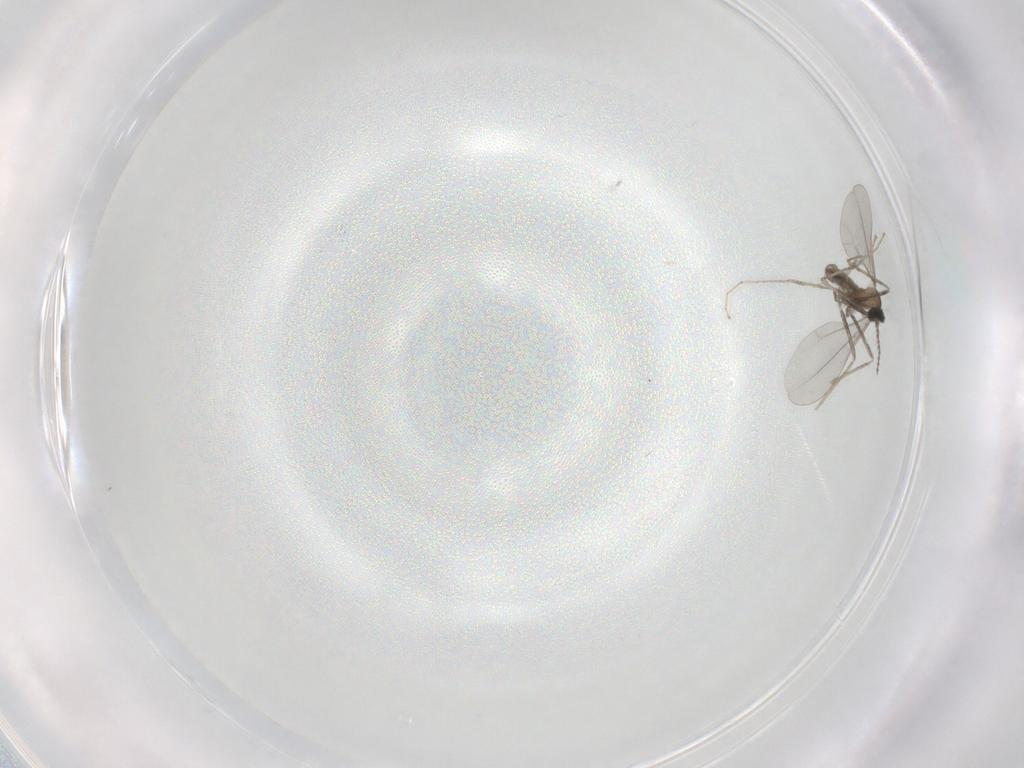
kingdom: Animalia
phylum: Arthropoda
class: Insecta
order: Diptera
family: Cecidomyiidae
